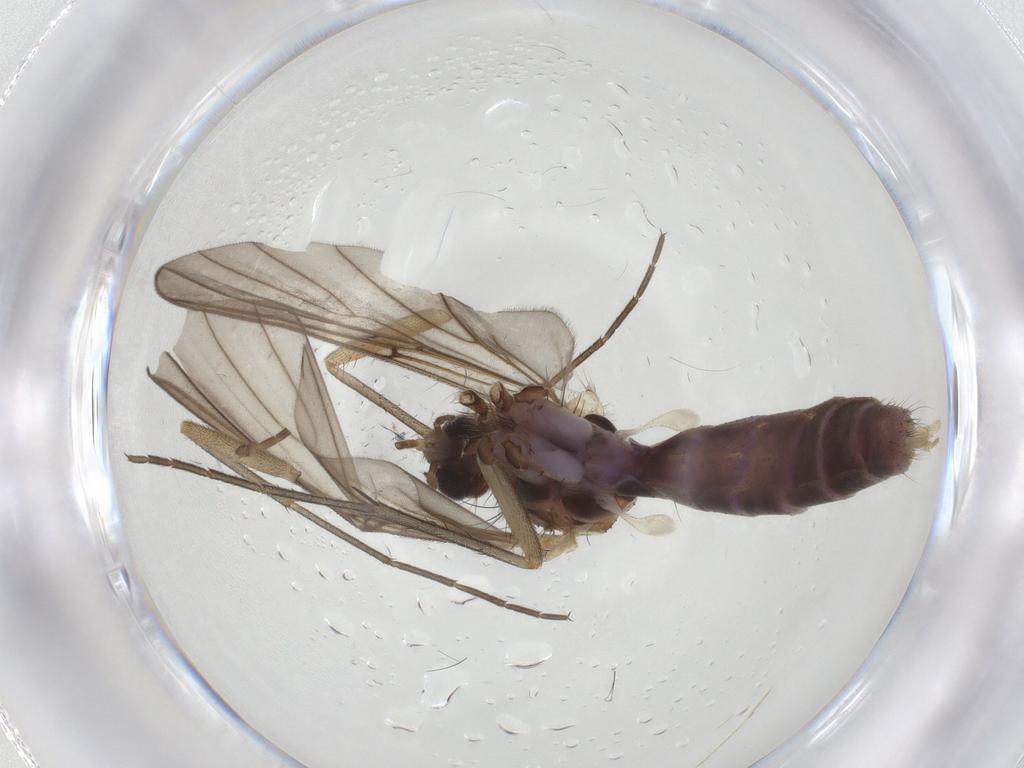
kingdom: Animalia
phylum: Arthropoda
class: Insecta
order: Diptera
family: Mycetophilidae
